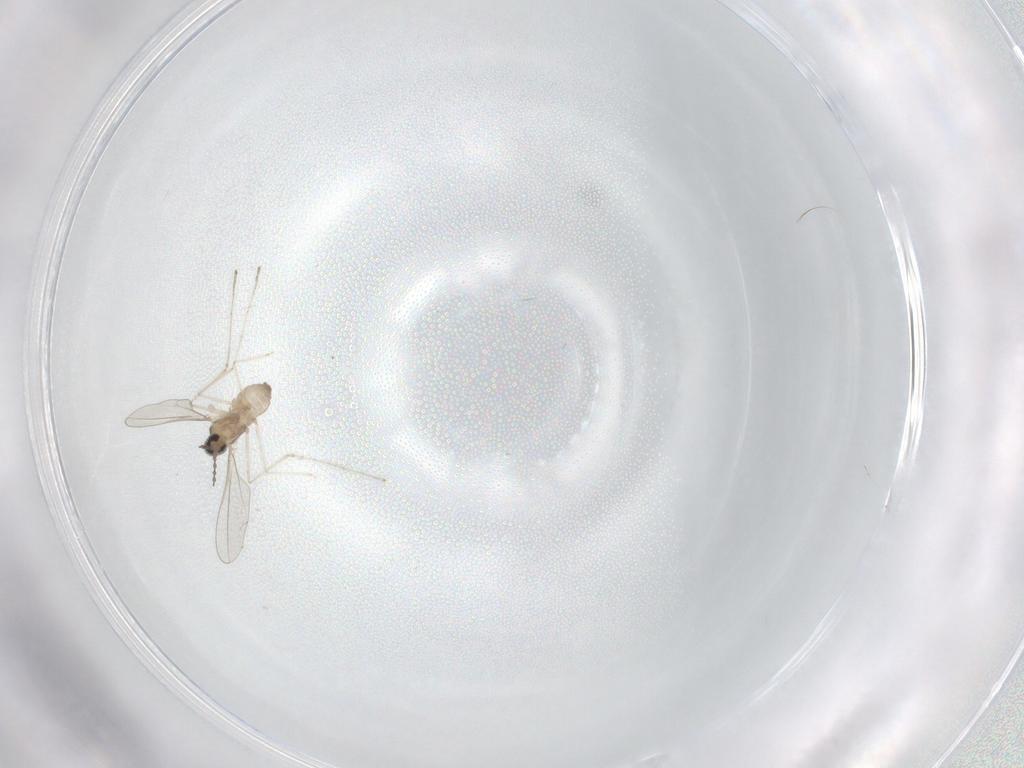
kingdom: Animalia
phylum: Arthropoda
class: Insecta
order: Diptera
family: Cecidomyiidae
